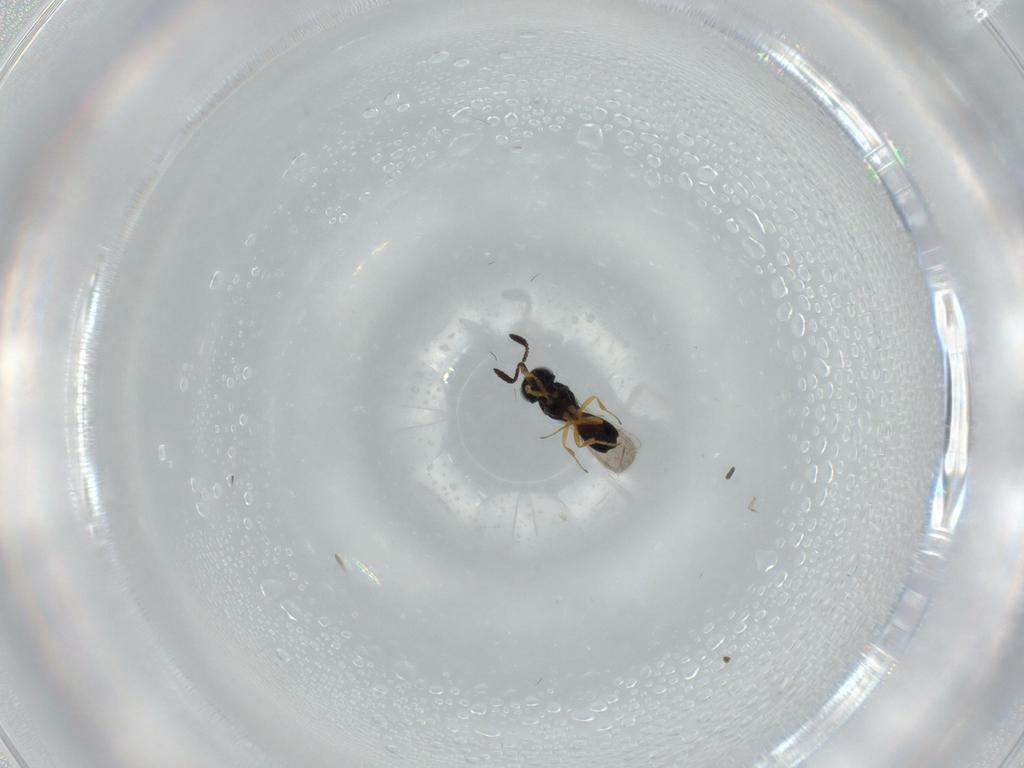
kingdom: Animalia
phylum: Arthropoda
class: Insecta
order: Hymenoptera
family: Scelionidae
